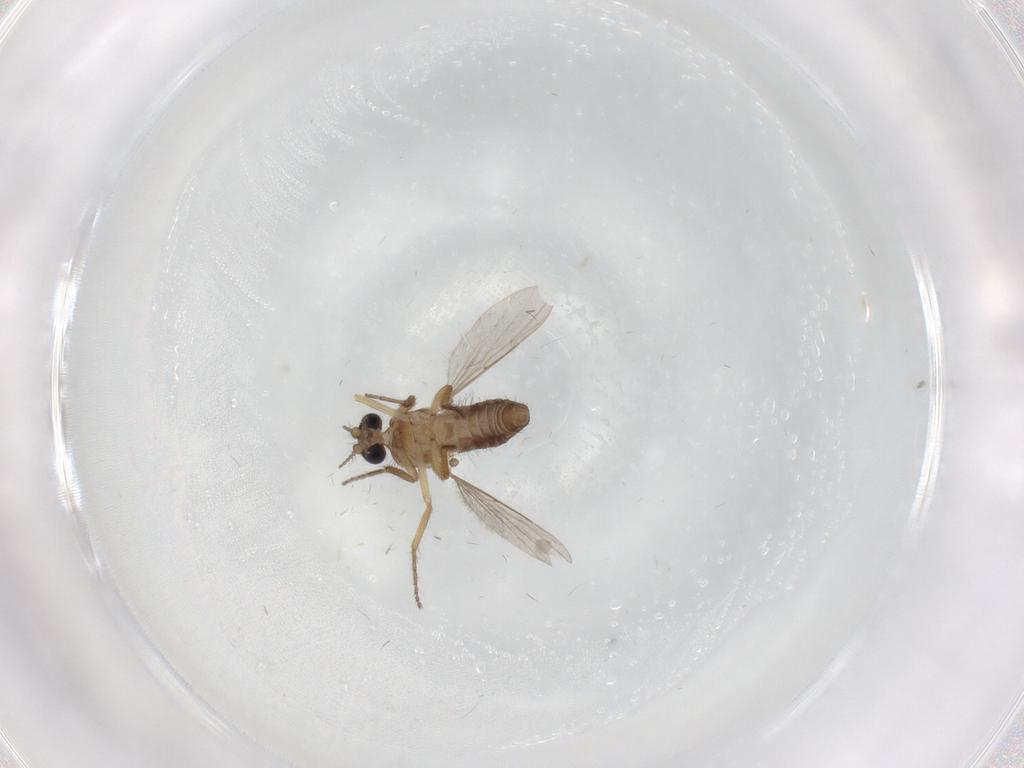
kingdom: Animalia
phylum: Arthropoda
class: Insecta
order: Diptera
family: Ceratopogonidae
